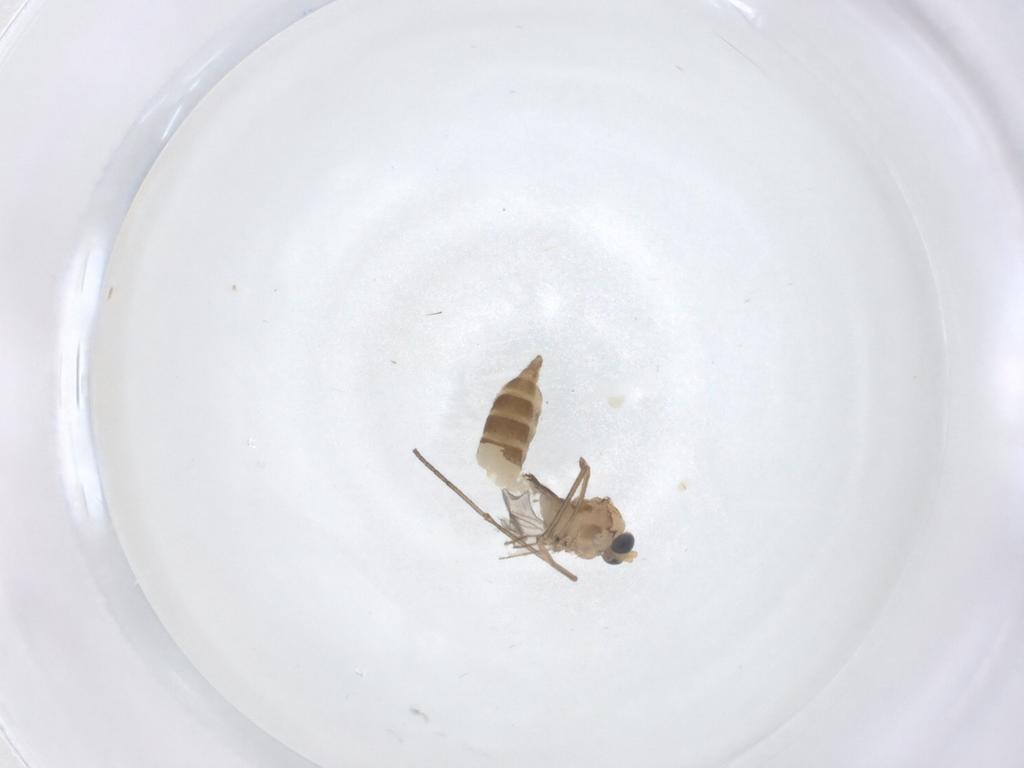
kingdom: Animalia
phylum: Arthropoda
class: Insecta
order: Diptera
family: Sciaridae
